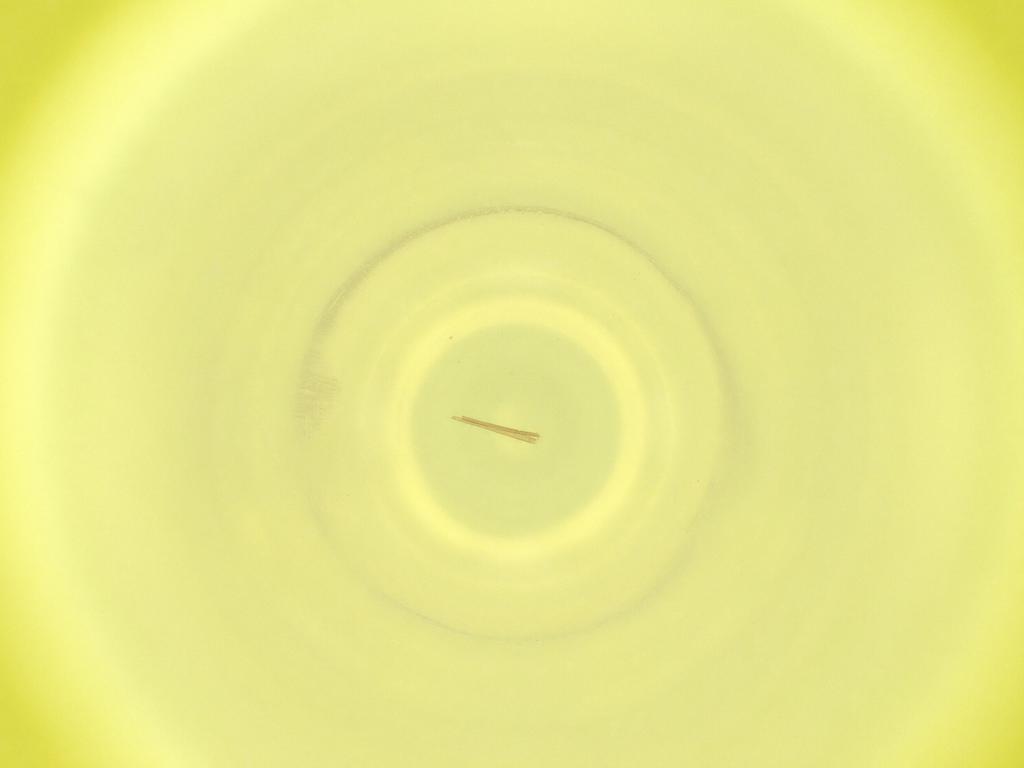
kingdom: Animalia
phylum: Arthropoda
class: Insecta
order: Diptera
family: Cecidomyiidae
